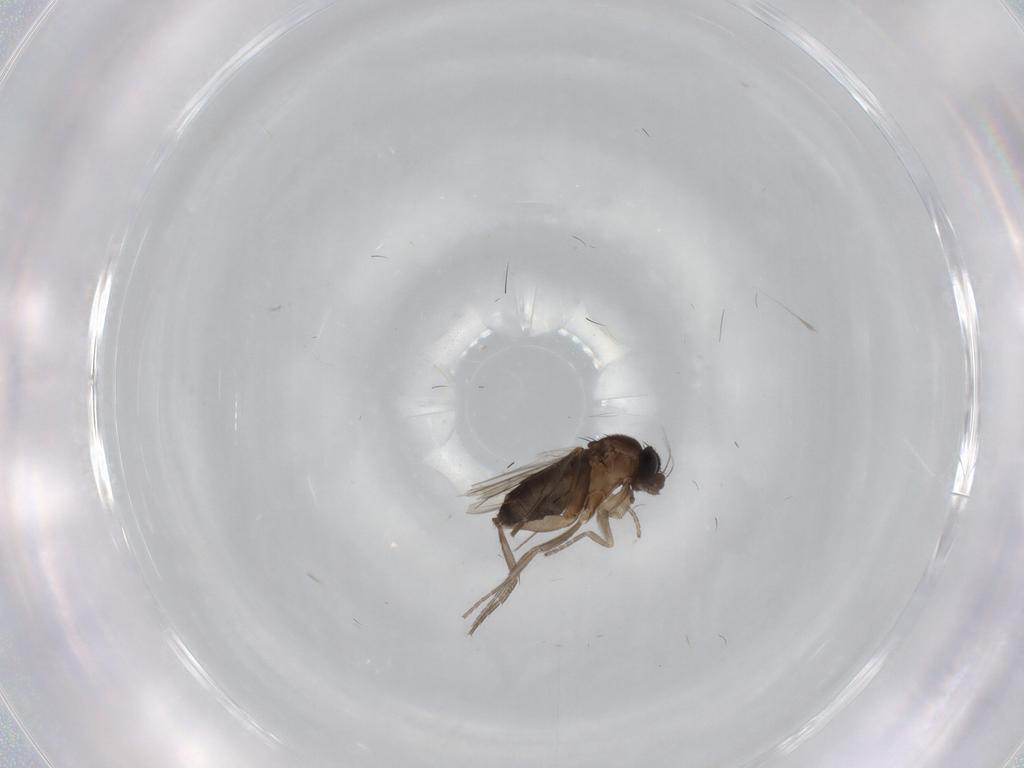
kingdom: Animalia
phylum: Arthropoda
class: Insecta
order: Diptera
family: Phoridae
